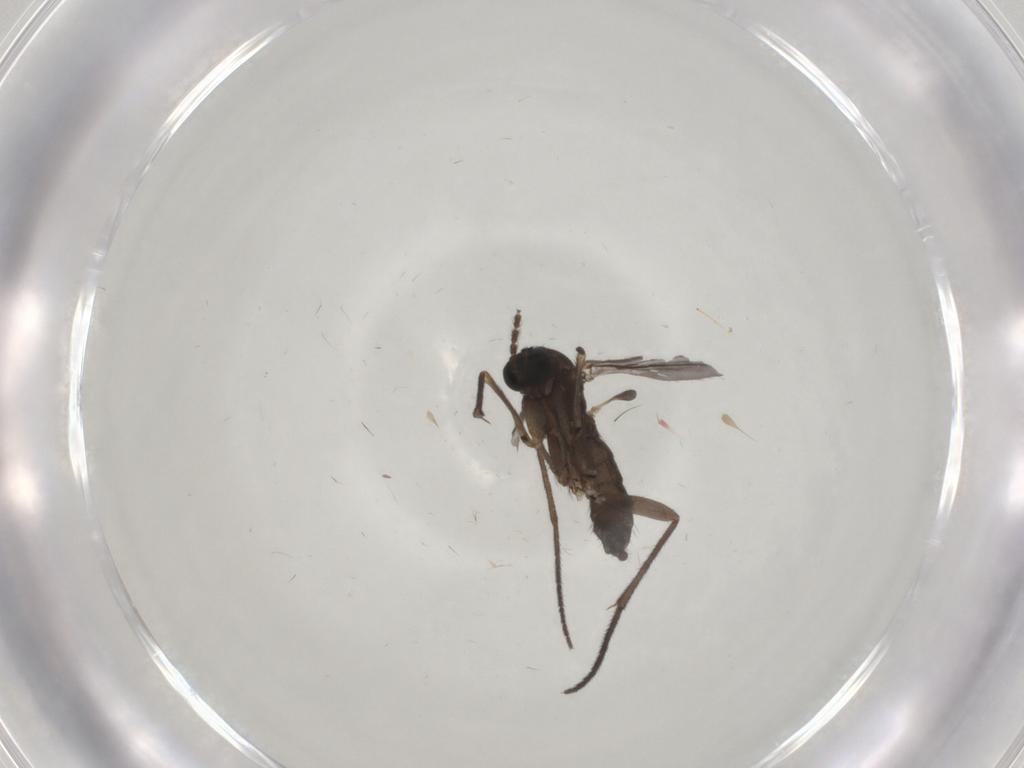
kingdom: Animalia
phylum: Arthropoda
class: Insecta
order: Diptera
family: Sciaridae
